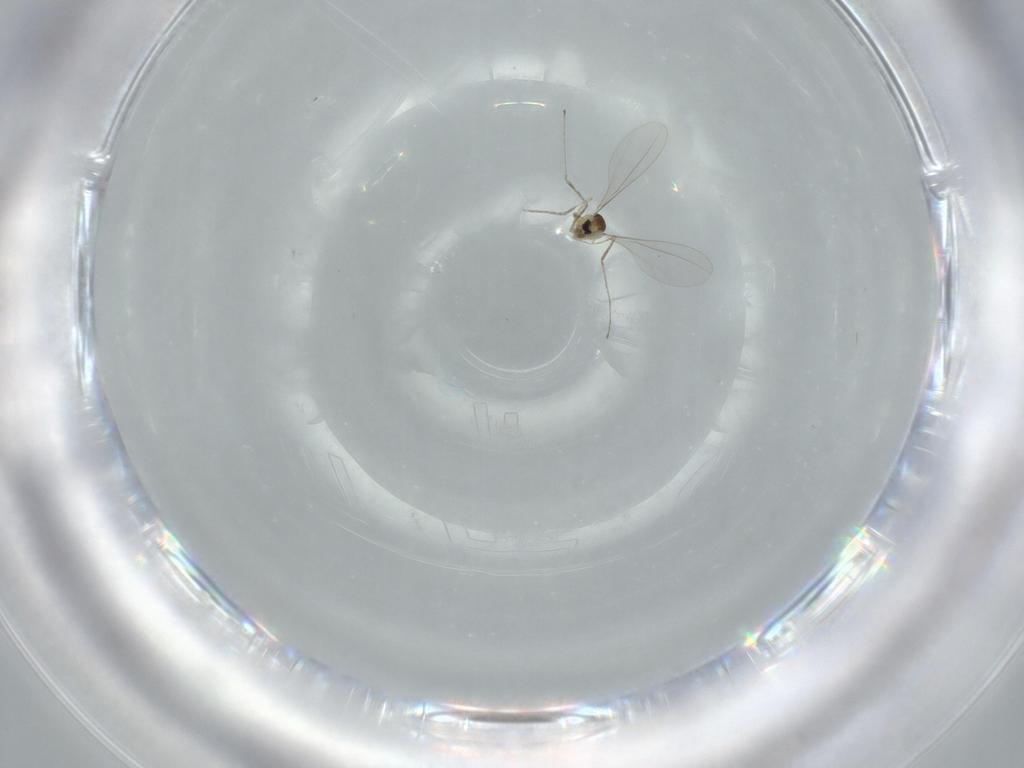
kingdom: Animalia
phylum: Arthropoda
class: Insecta
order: Diptera
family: Cecidomyiidae
